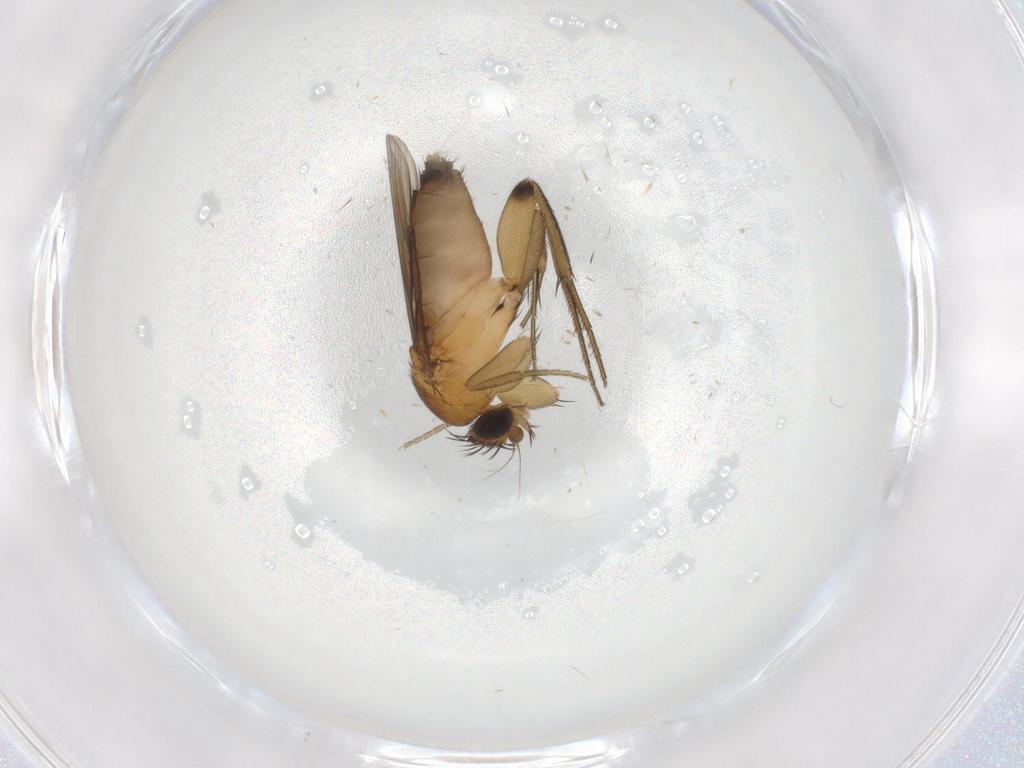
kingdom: Animalia
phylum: Arthropoda
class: Insecta
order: Diptera
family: Phoridae
